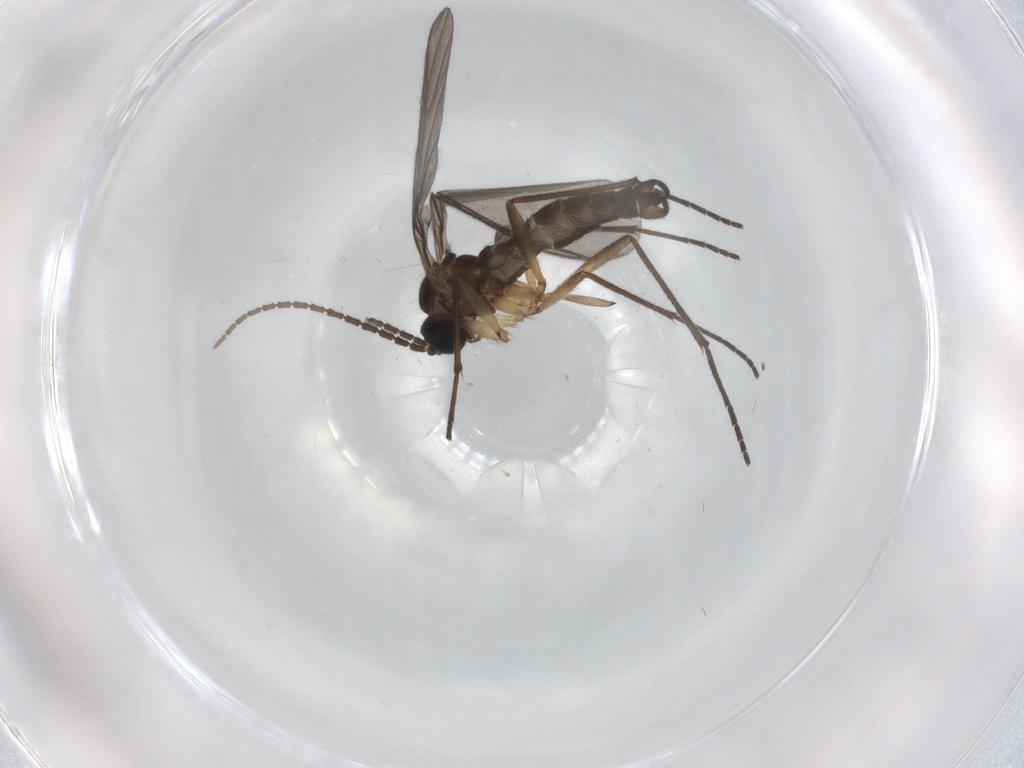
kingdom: Animalia
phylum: Arthropoda
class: Insecta
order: Diptera
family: Sciaridae
